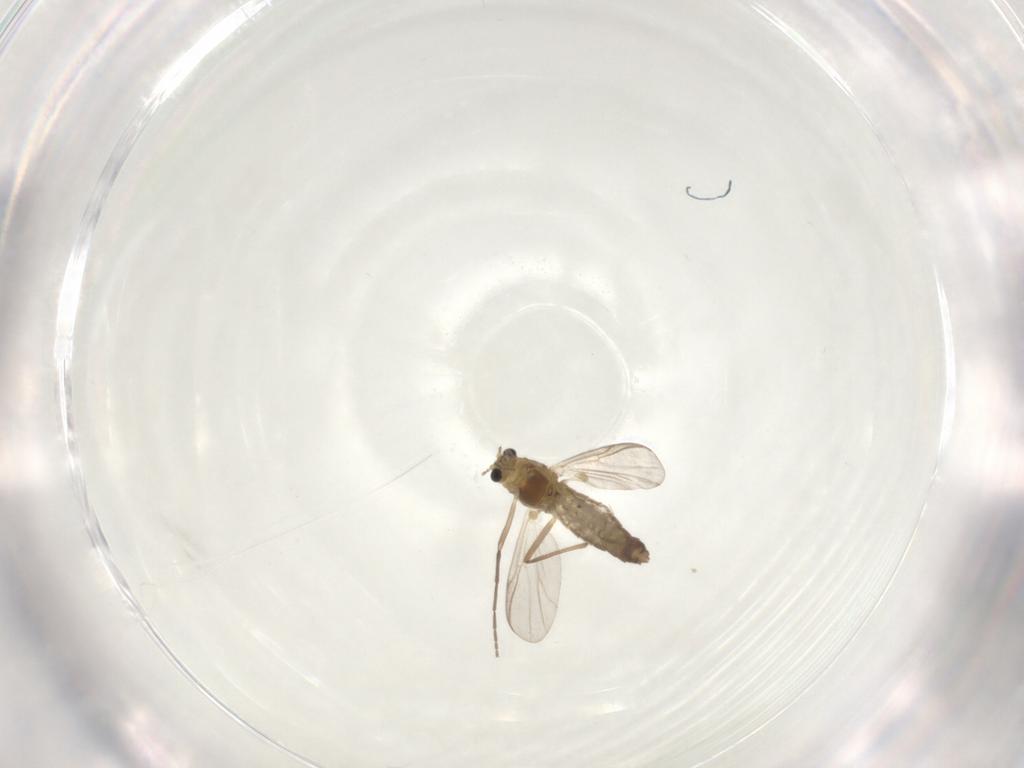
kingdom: Animalia
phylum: Arthropoda
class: Insecta
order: Diptera
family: Chironomidae
